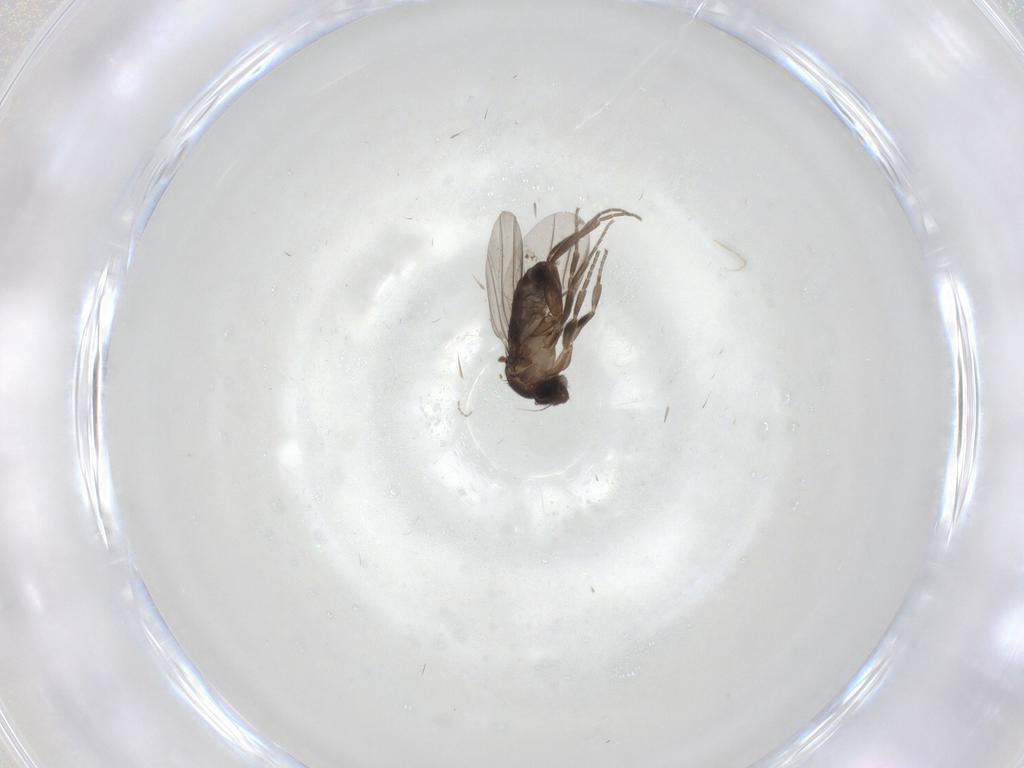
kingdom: Animalia
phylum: Arthropoda
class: Insecta
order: Diptera
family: Phoridae
